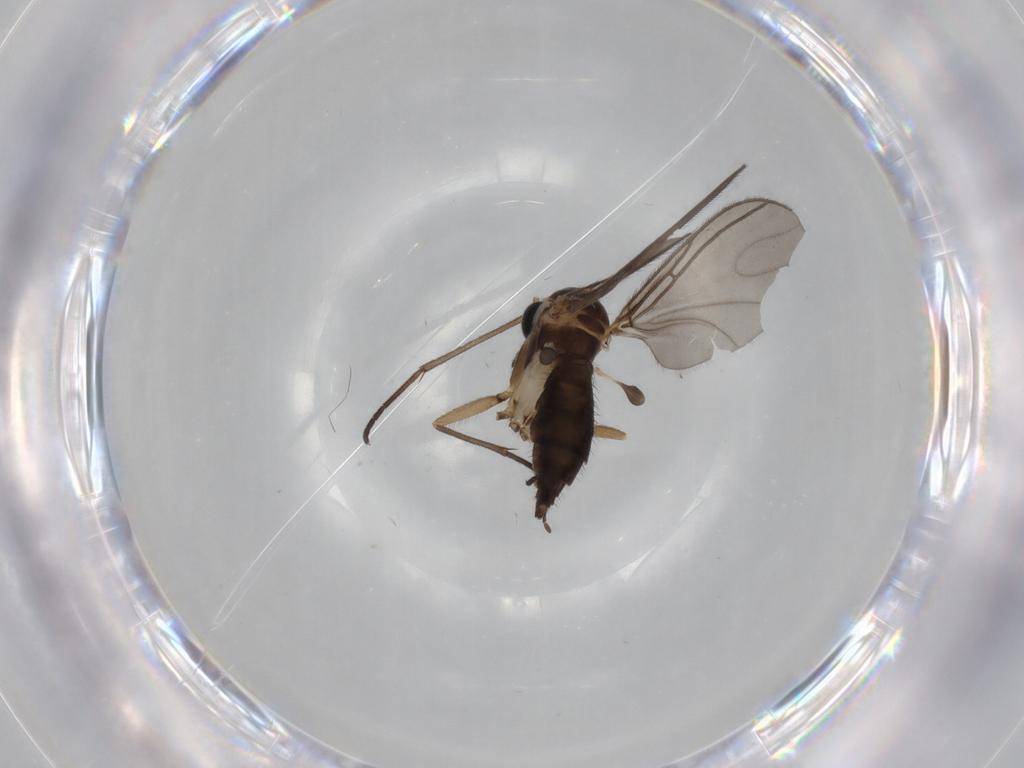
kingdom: Animalia
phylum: Arthropoda
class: Insecta
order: Diptera
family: Sciaridae
